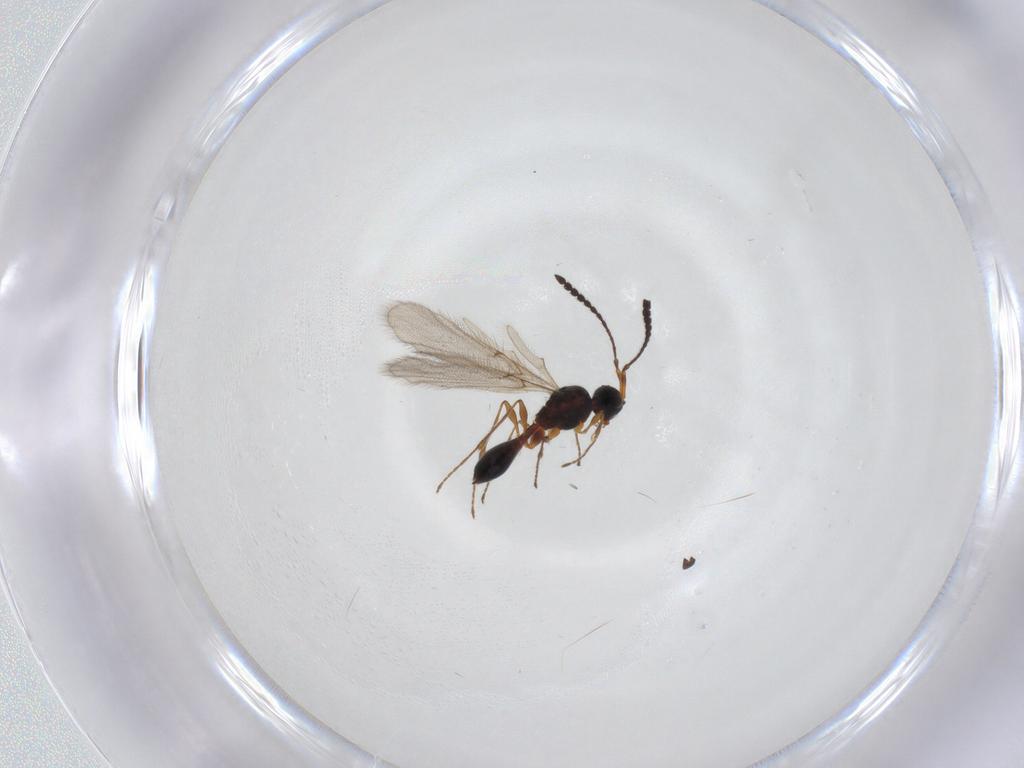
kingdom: Animalia
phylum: Arthropoda
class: Insecta
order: Hymenoptera
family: Diapriidae
